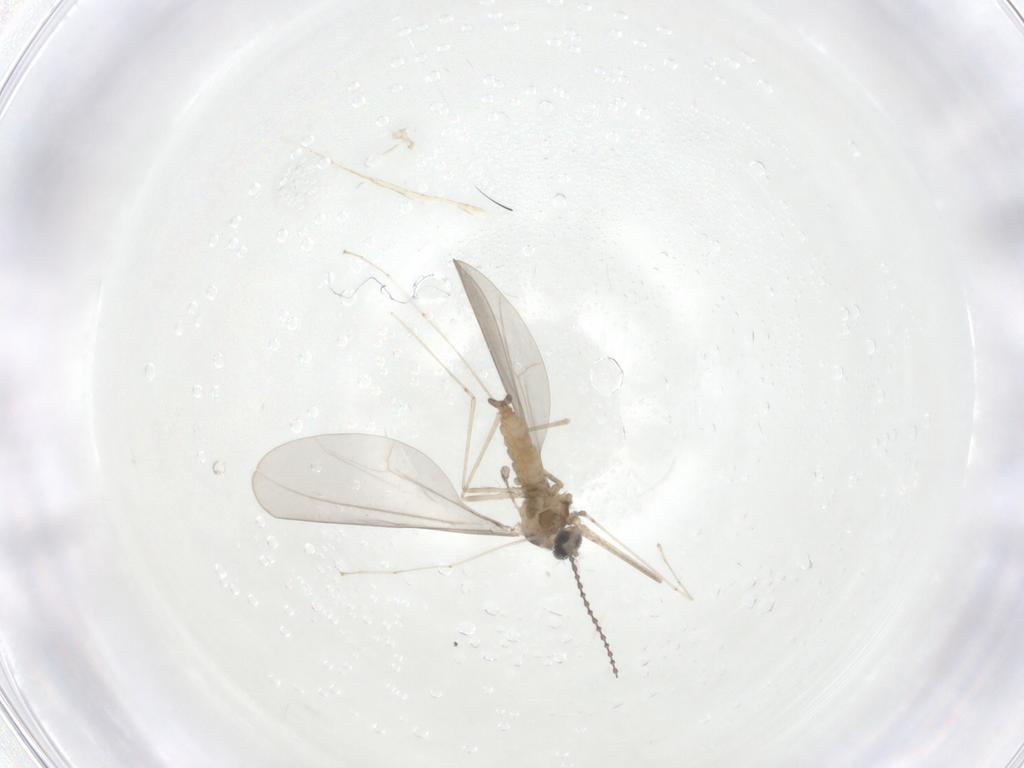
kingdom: Animalia
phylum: Arthropoda
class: Insecta
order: Diptera
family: Cecidomyiidae
